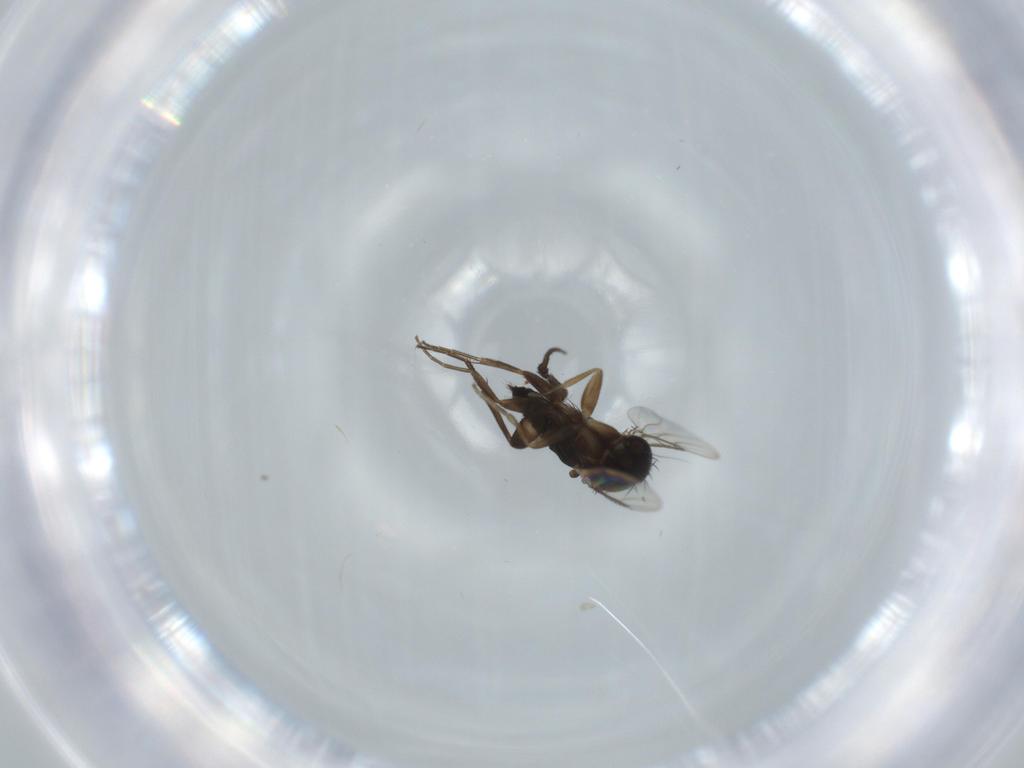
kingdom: Animalia
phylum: Arthropoda
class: Insecta
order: Diptera
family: Phoridae
